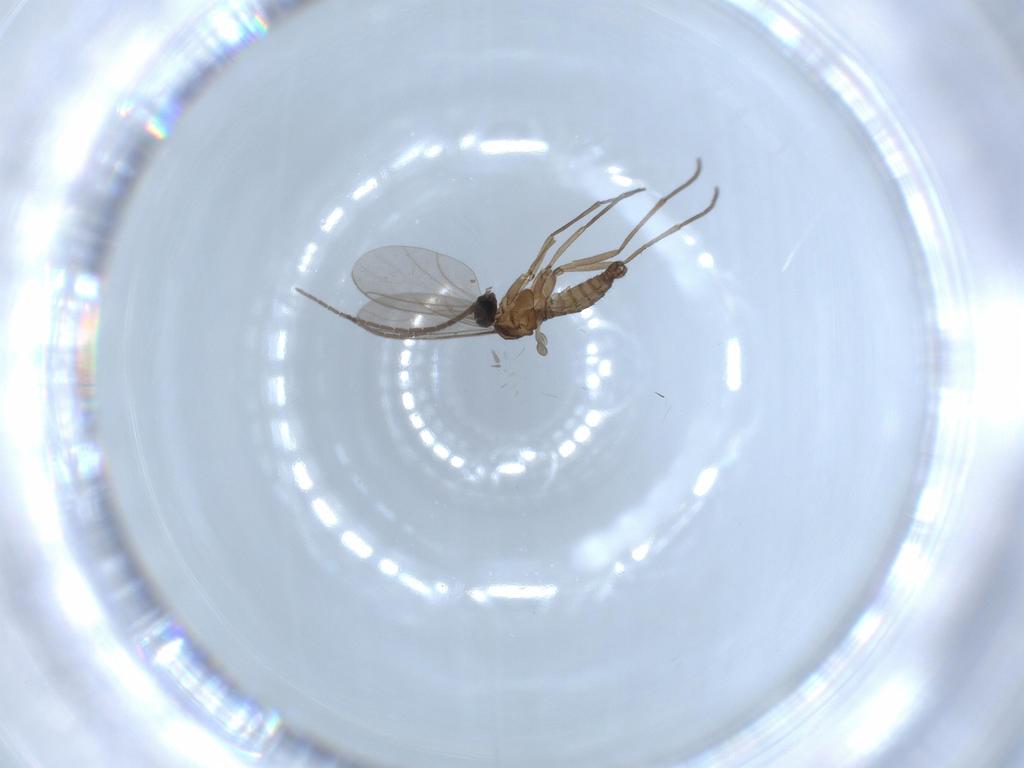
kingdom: Animalia
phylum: Arthropoda
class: Insecta
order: Diptera
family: Sciaridae
